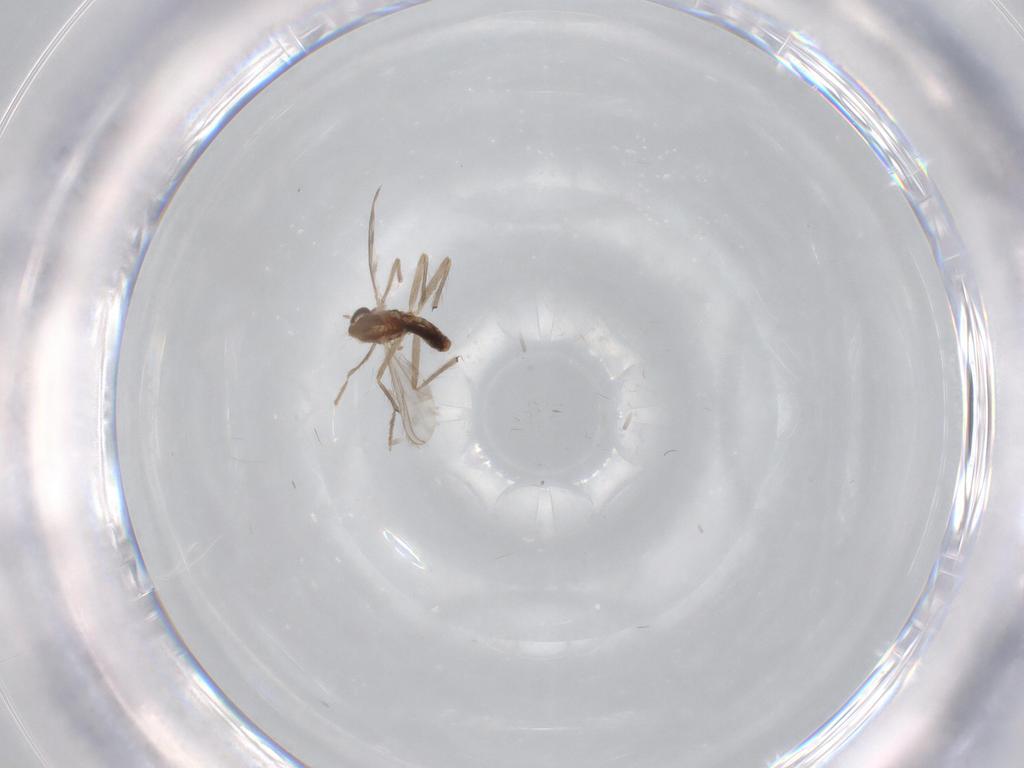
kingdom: Animalia
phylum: Arthropoda
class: Insecta
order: Diptera
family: Chironomidae
